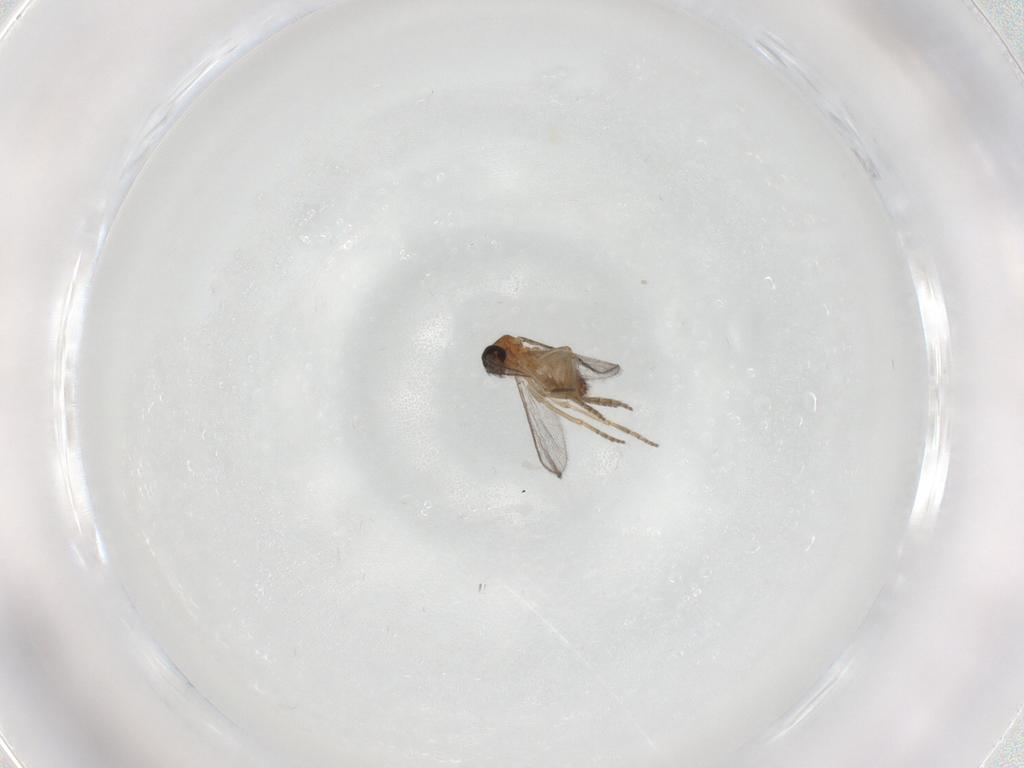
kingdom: Animalia
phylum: Arthropoda
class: Insecta
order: Diptera
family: Ceratopogonidae
